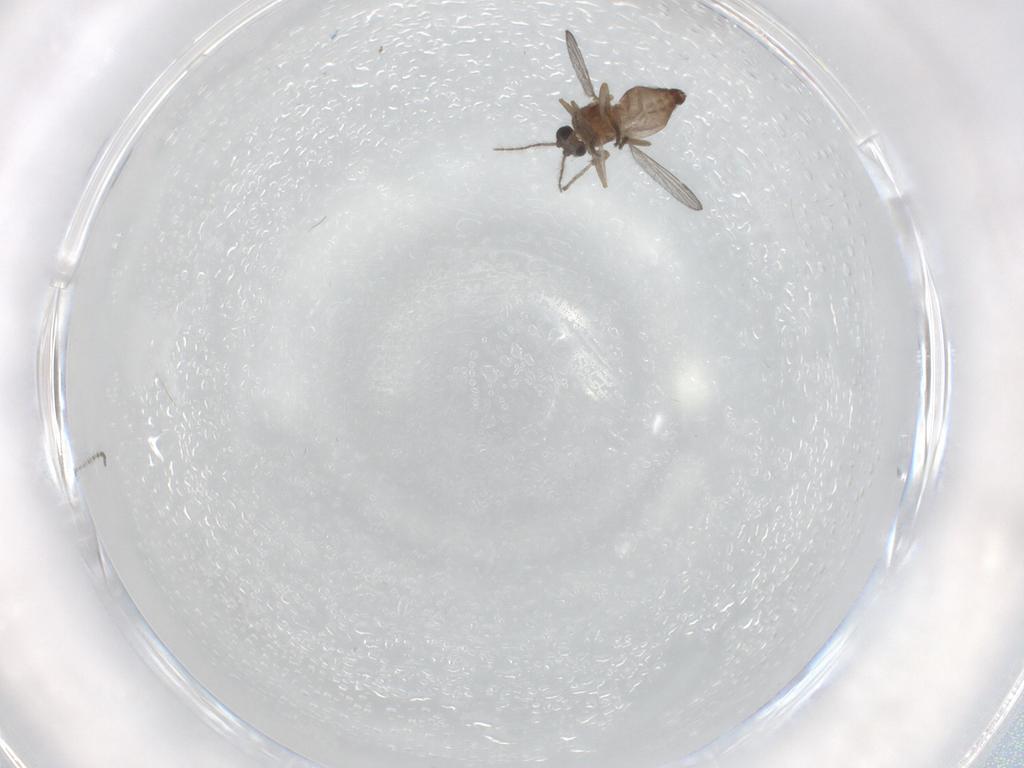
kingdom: Animalia
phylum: Arthropoda
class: Insecta
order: Diptera
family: Ceratopogonidae
